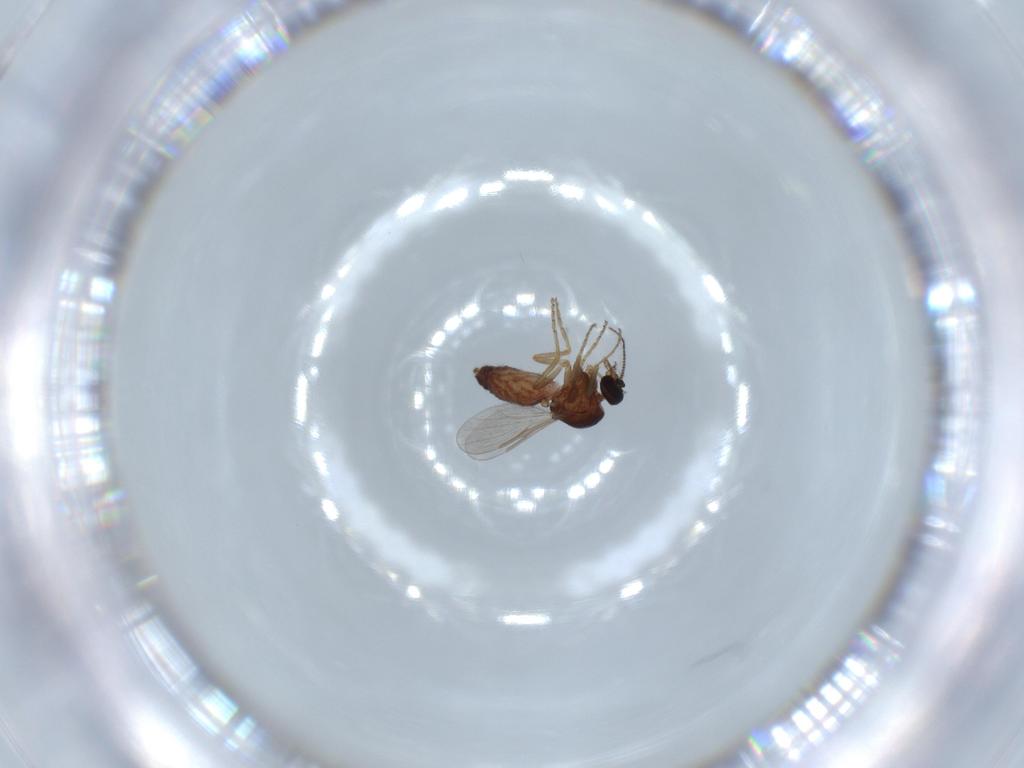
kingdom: Animalia
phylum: Arthropoda
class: Insecta
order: Diptera
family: Ceratopogonidae
